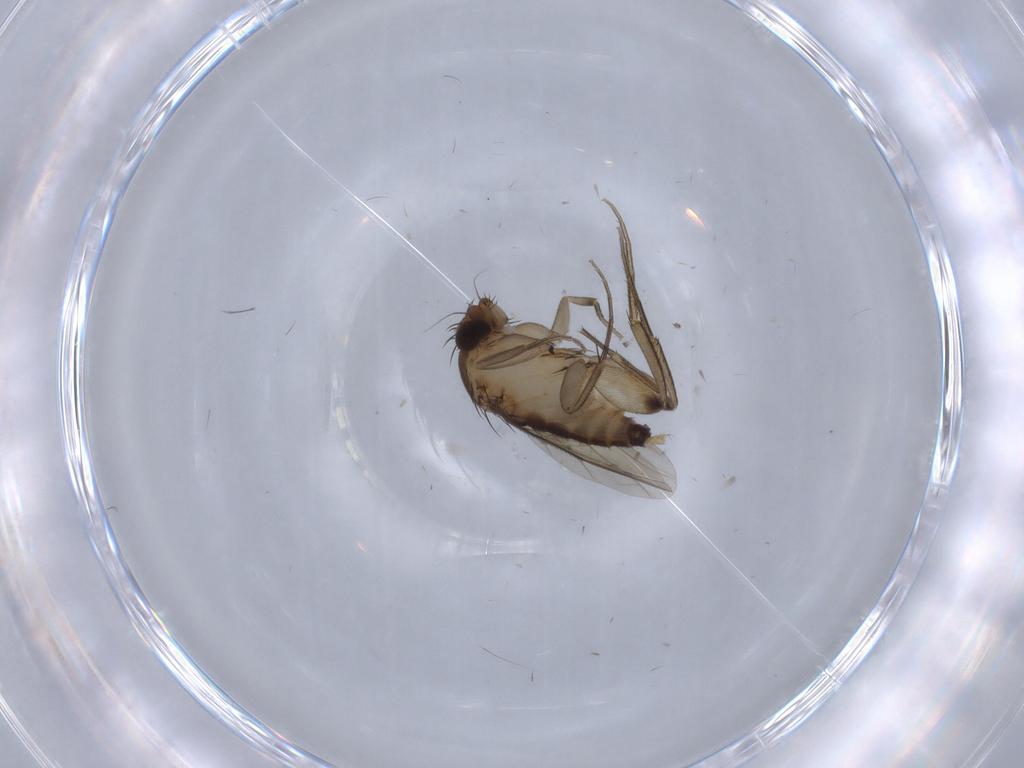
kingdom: Animalia
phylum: Arthropoda
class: Insecta
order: Diptera
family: Phoridae
